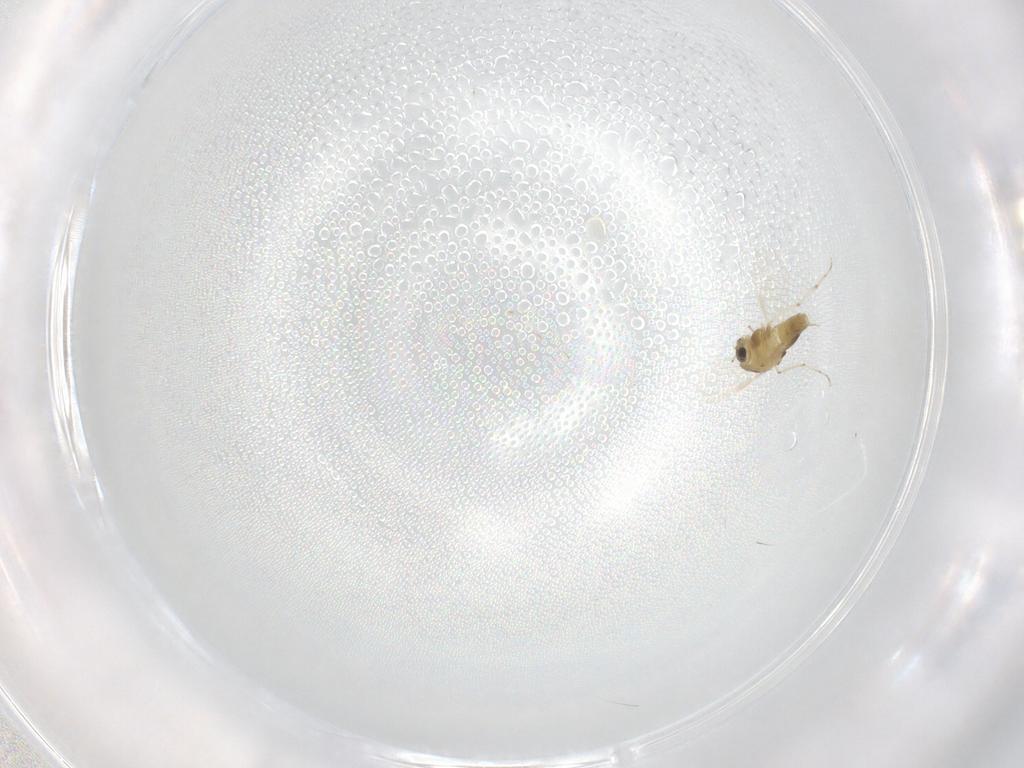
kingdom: Animalia
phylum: Arthropoda
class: Insecta
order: Diptera
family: Chironomidae
